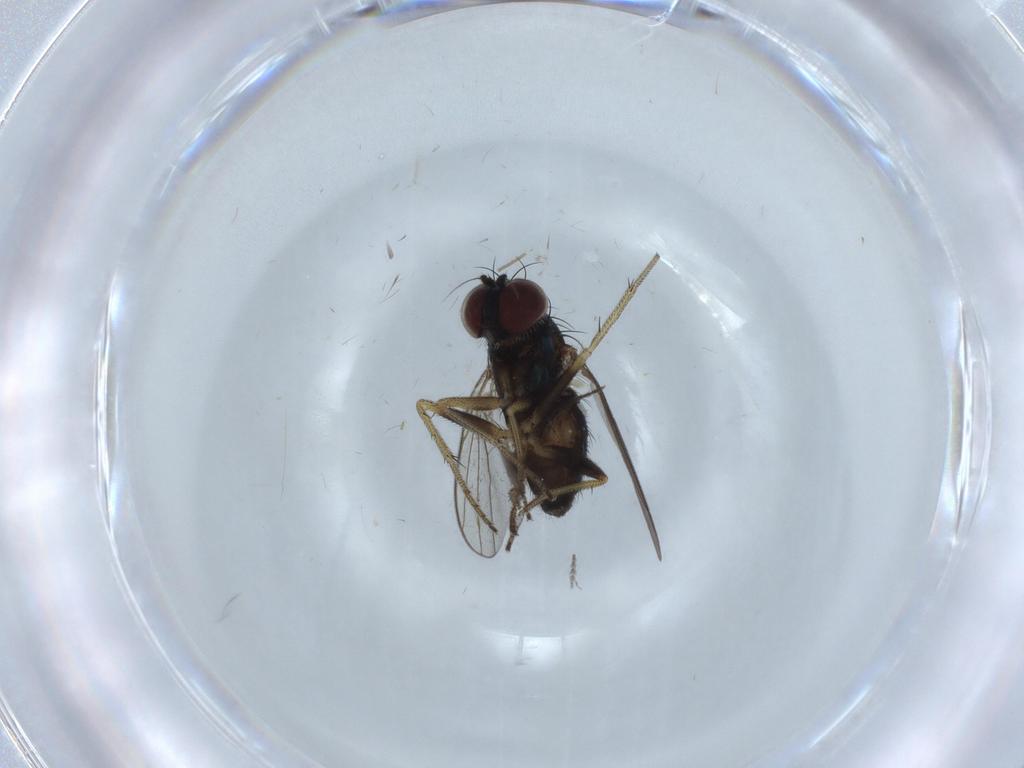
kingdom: Animalia
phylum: Arthropoda
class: Insecta
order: Diptera
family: Dolichopodidae
